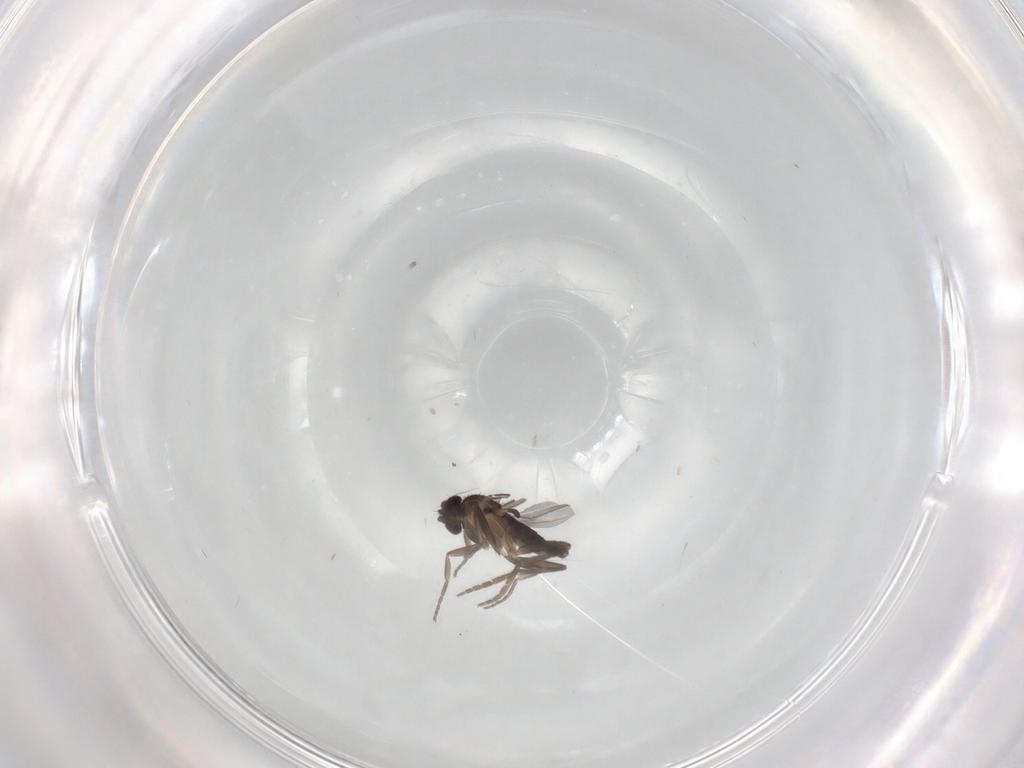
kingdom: Animalia
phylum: Arthropoda
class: Insecta
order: Diptera
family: Phoridae
